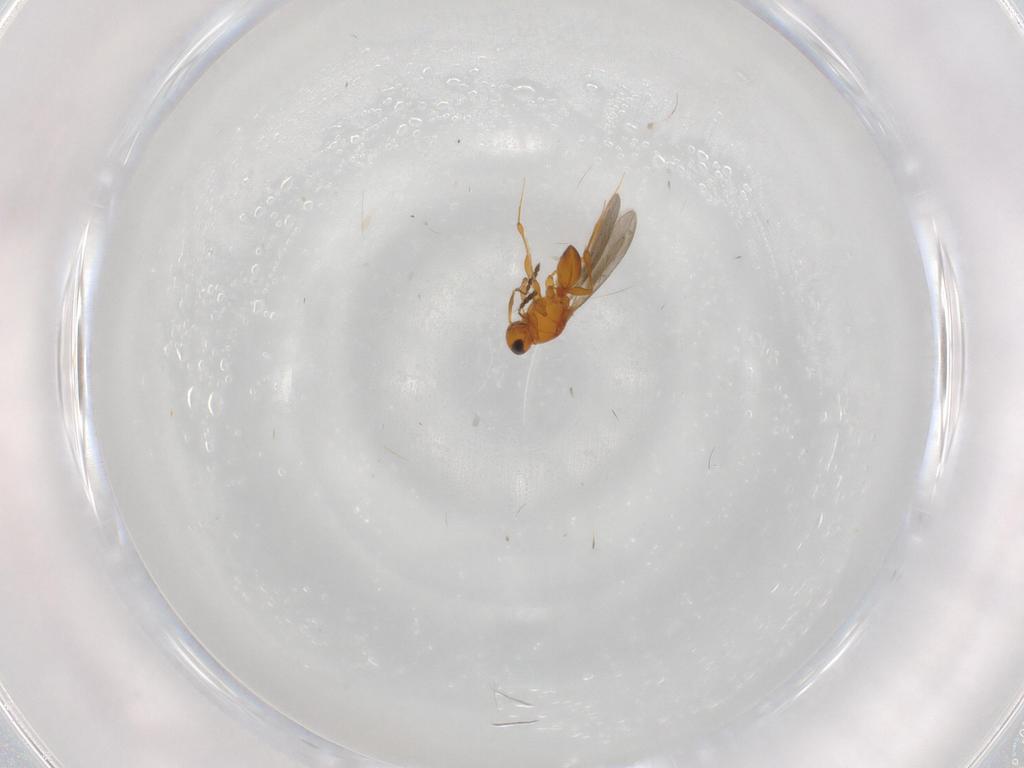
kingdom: Animalia
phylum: Arthropoda
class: Insecta
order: Hymenoptera
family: Platygastridae
